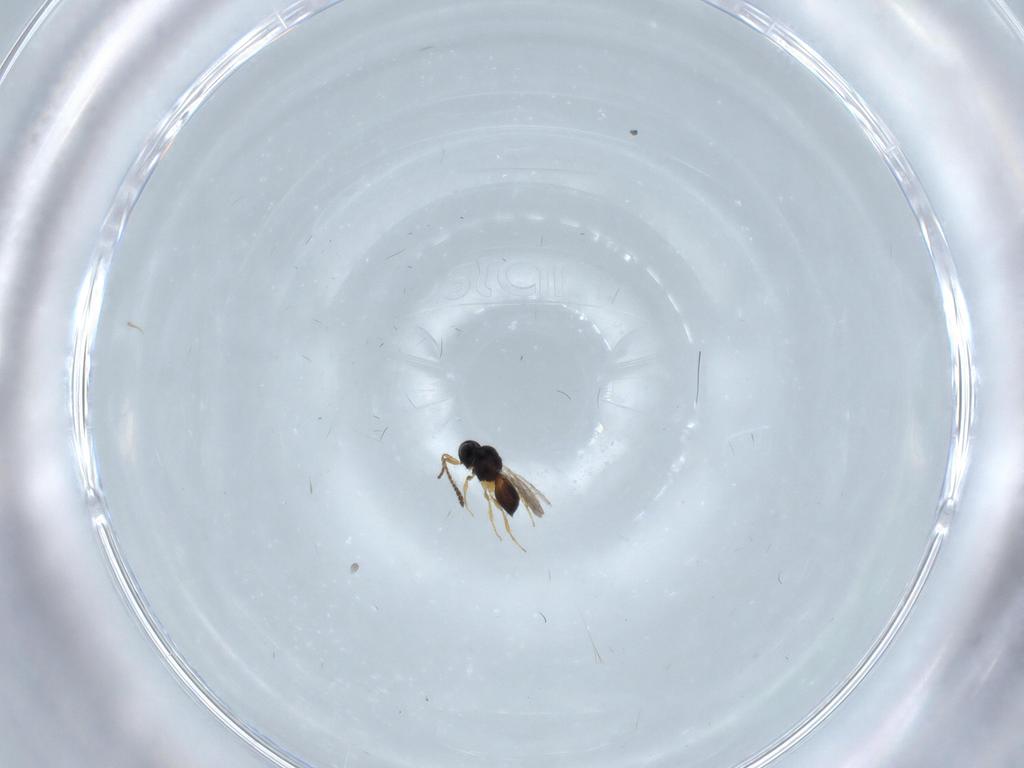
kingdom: Animalia
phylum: Arthropoda
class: Insecta
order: Hymenoptera
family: Scelionidae
